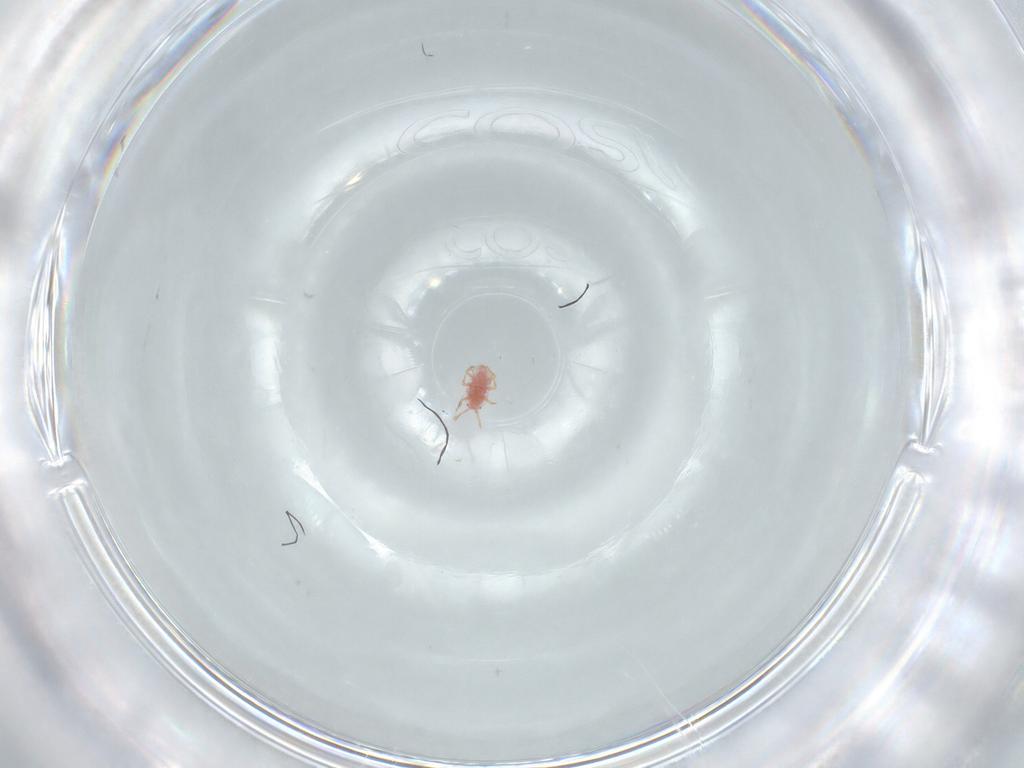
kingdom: Animalia
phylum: Arthropoda
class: Insecta
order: Hemiptera
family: Aleyrodidae
